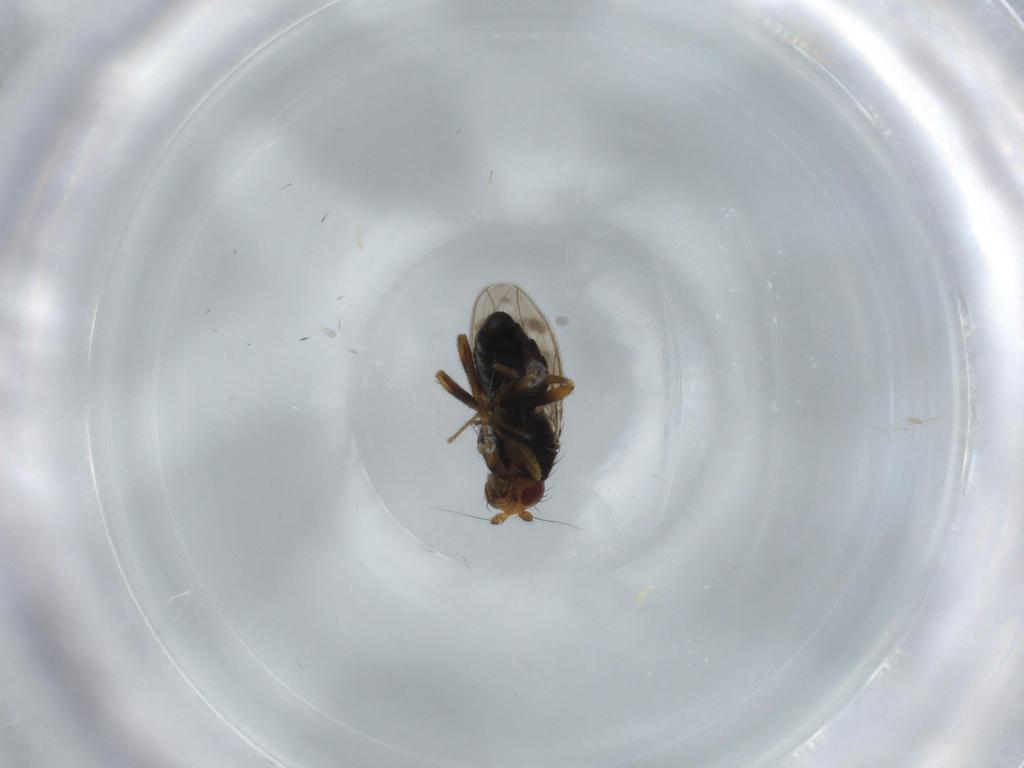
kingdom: Animalia
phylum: Arthropoda
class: Insecta
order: Diptera
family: Sphaeroceridae
